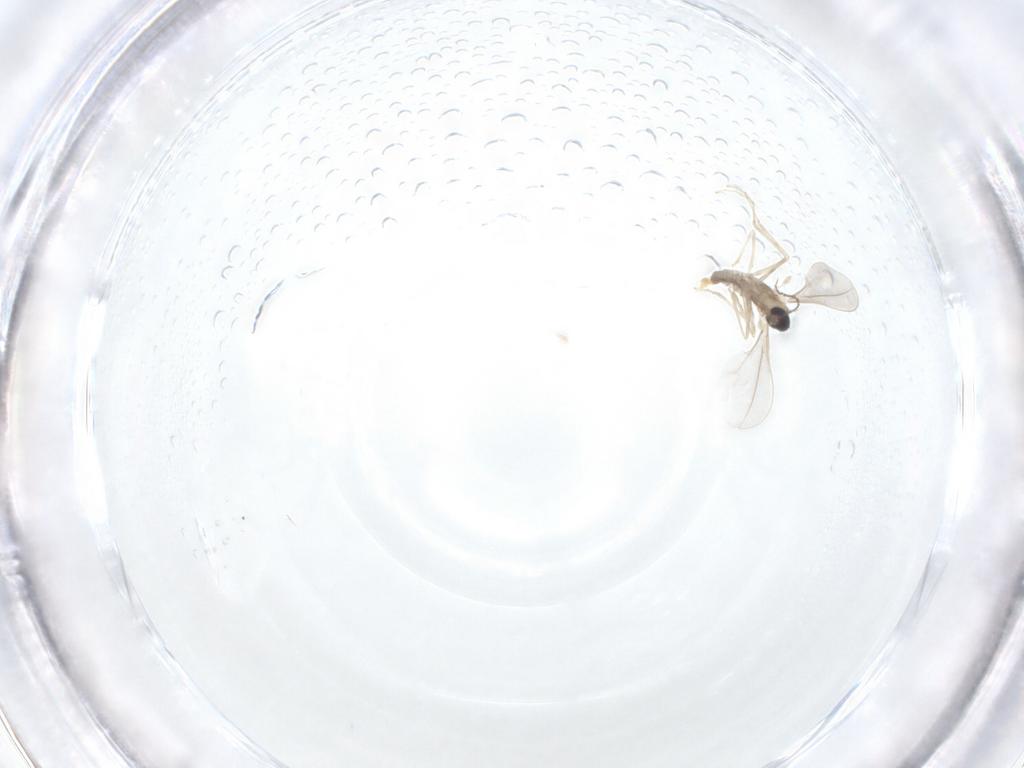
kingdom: Animalia
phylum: Arthropoda
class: Insecta
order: Diptera
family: Cecidomyiidae
